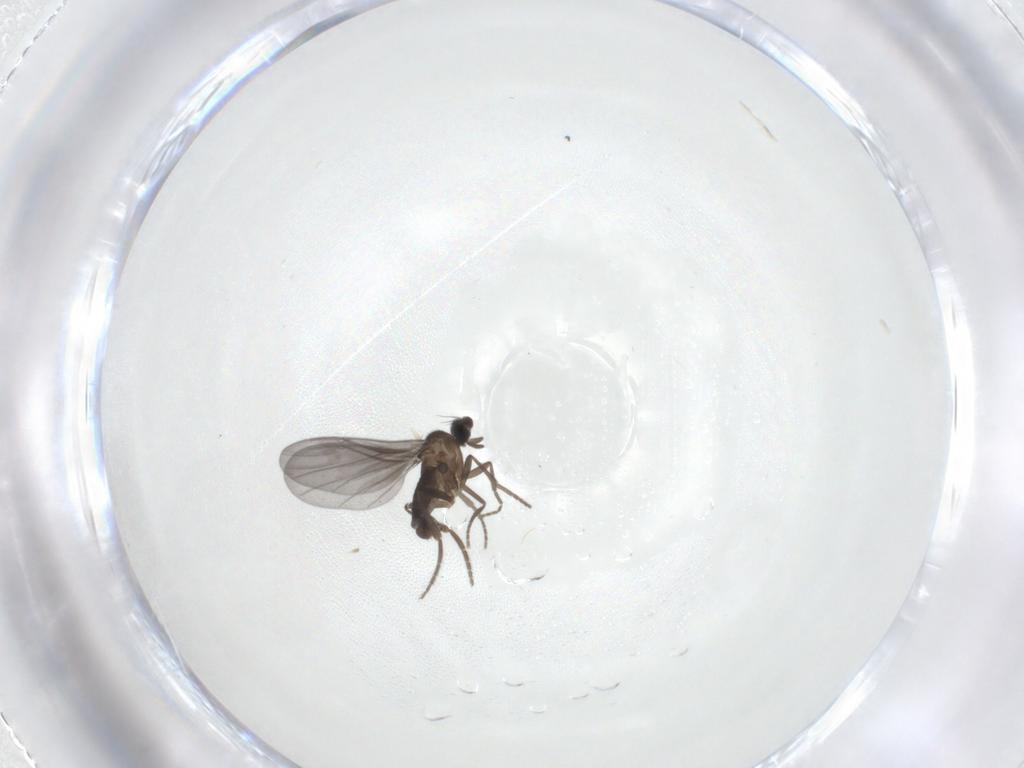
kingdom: Animalia
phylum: Arthropoda
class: Insecta
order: Diptera
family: Phoridae
